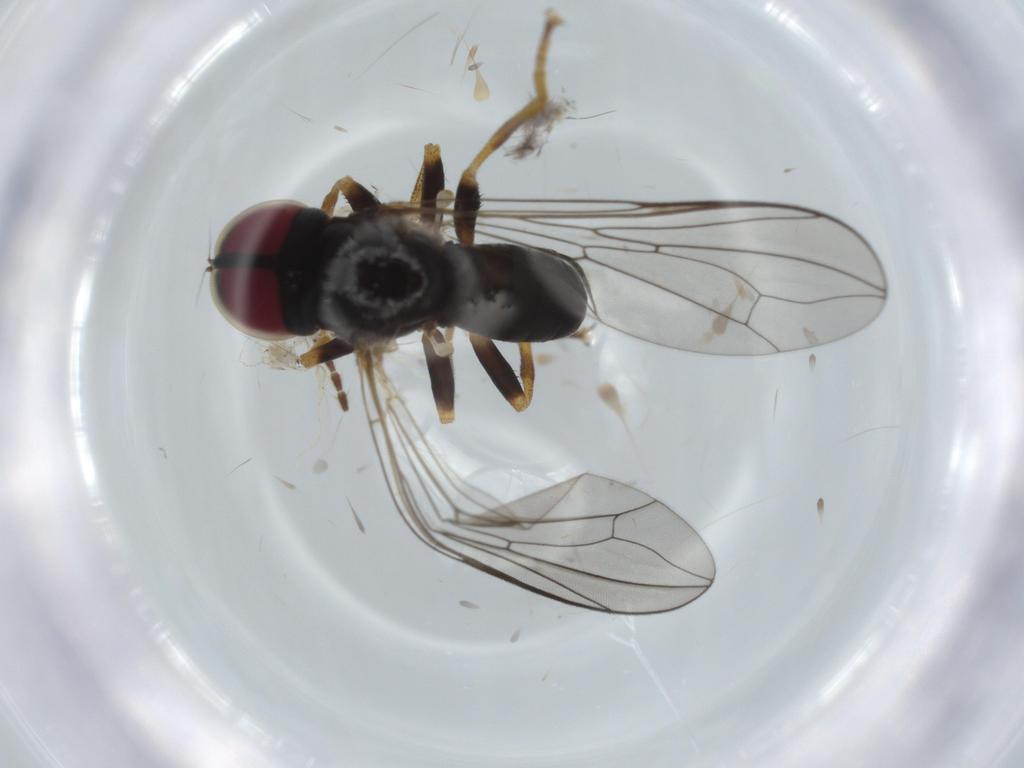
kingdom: Animalia
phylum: Arthropoda
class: Insecta
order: Diptera
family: Pipunculidae
